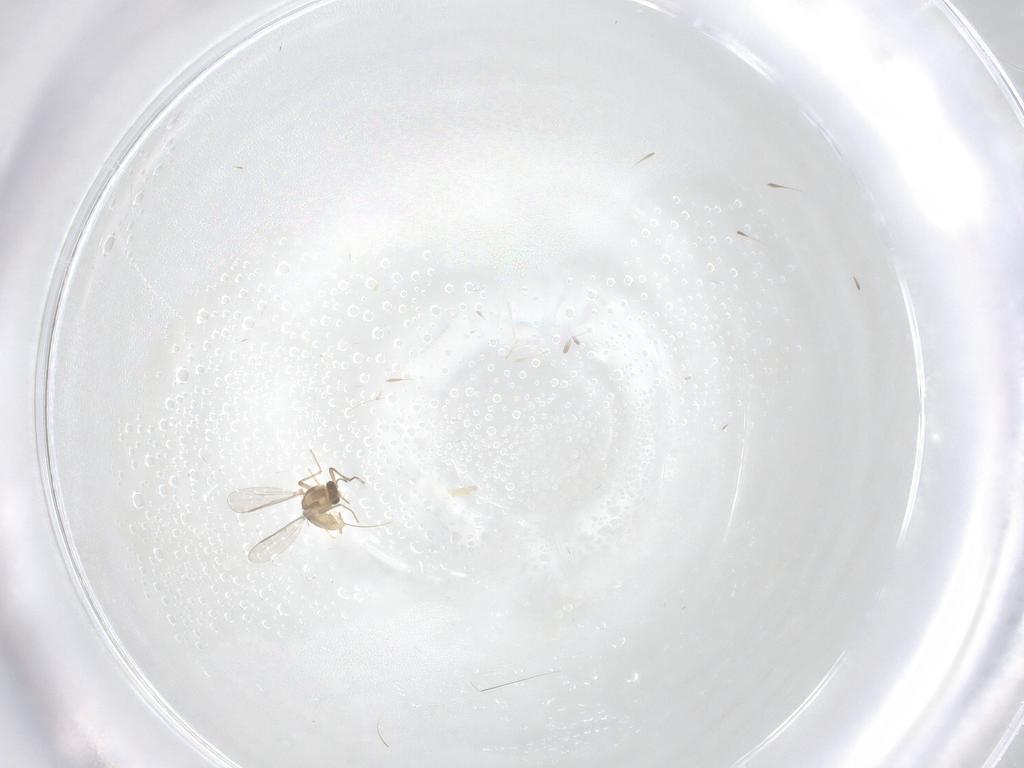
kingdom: Animalia
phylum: Arthropoda
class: Insecta
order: Diptera
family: Chironomidae
